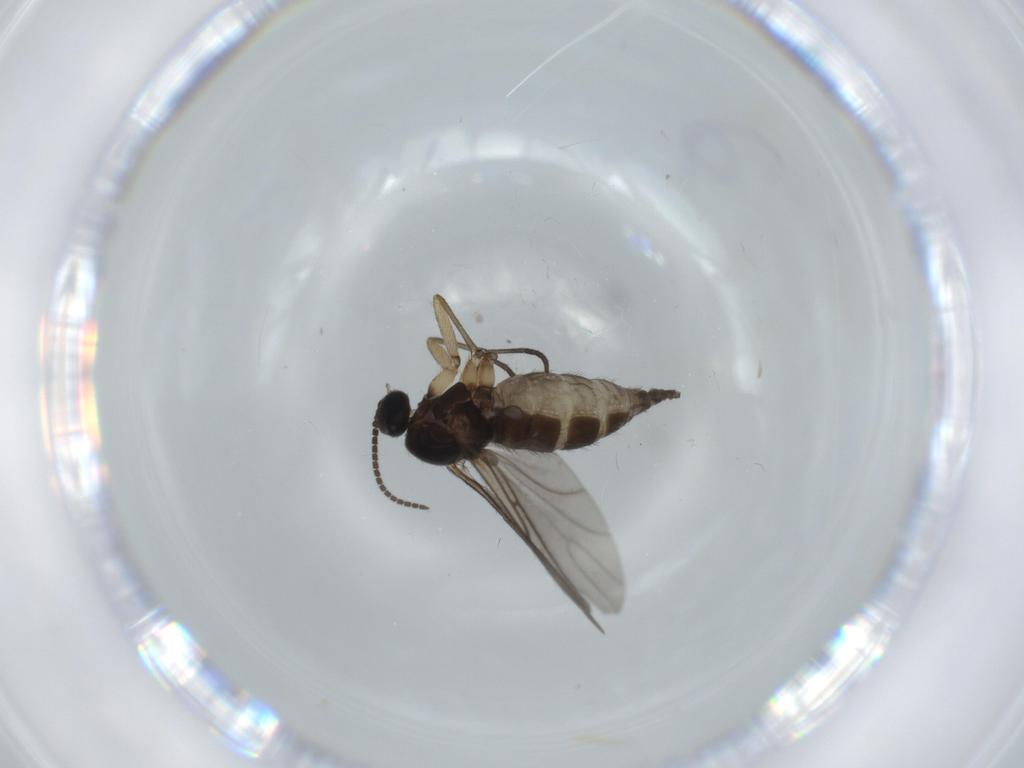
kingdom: Animalia
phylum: Arthropoda
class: Insecta
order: Diptera
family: Sciaridae
